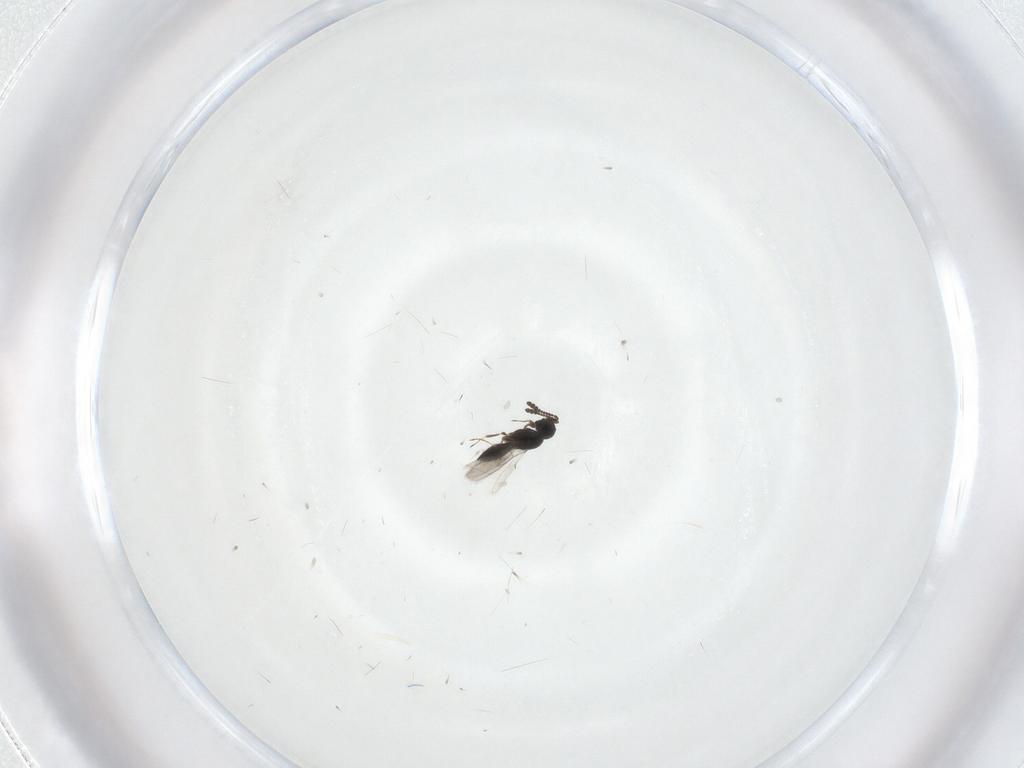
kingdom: Animalia
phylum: Arthropoda
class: Insecta
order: Hymenoptera
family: Scelionidae
